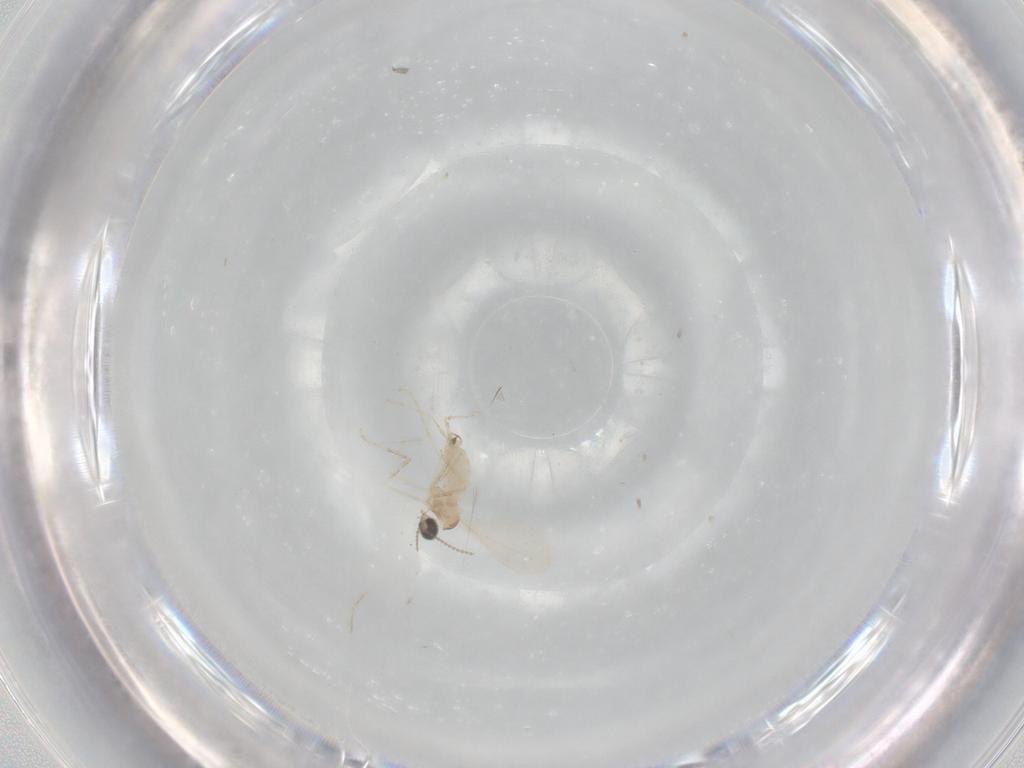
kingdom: Animalia
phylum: Arthropoda
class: Insecta
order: Diptera
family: Cecidomyiidae
